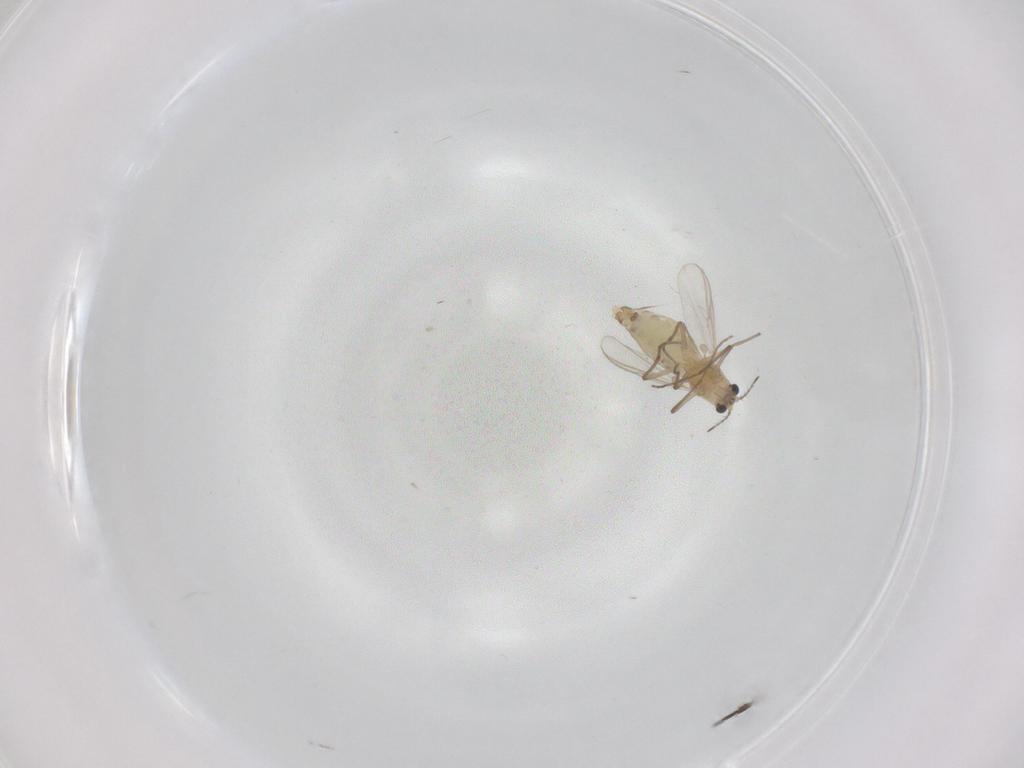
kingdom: Animalia
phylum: Arthropoda
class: Insecta
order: Diptera
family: Chironomidae
